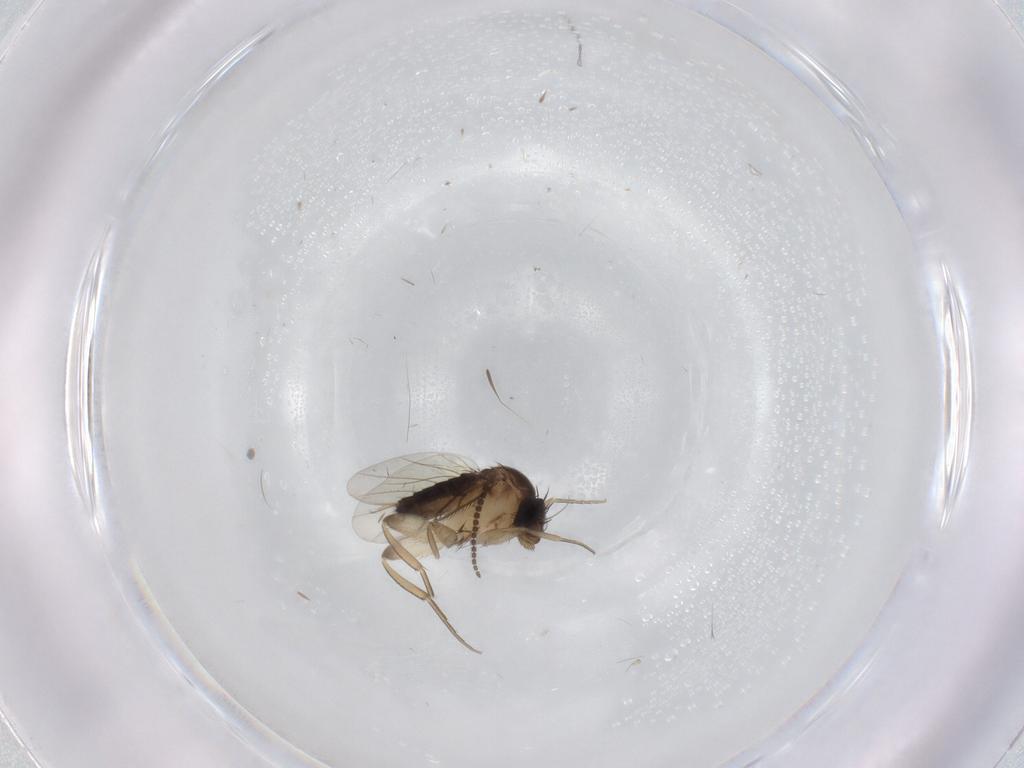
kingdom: Animalia
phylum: Arthropoda
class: Insecta
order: Diptera
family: Phoridae
